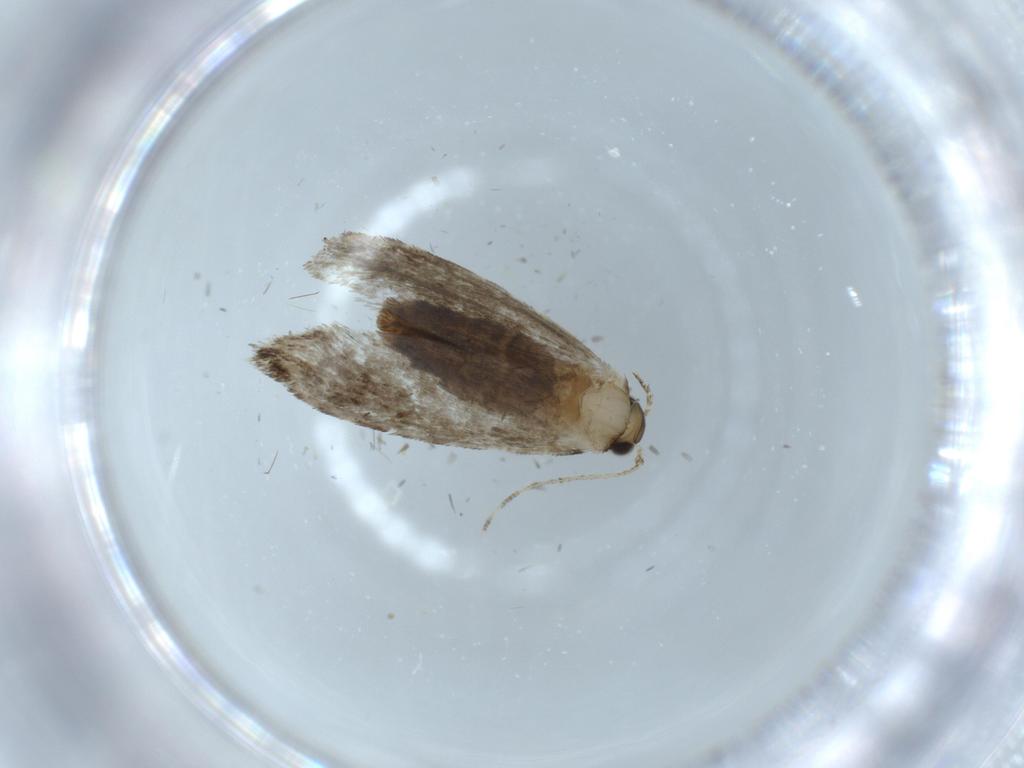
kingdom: Animalia
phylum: Arthropoda
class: Insecta
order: Lepidoptera
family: Tineidae
